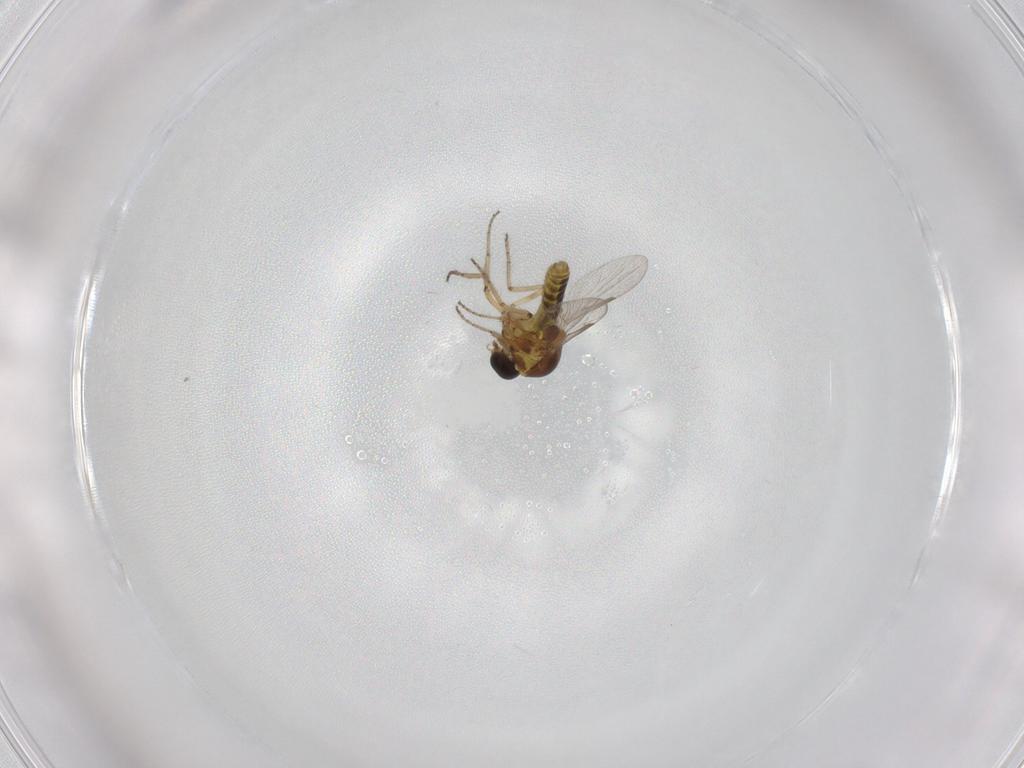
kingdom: Animalia
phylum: Arthropoda
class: Insecta
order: Diptera
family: Ceratopogonidae
